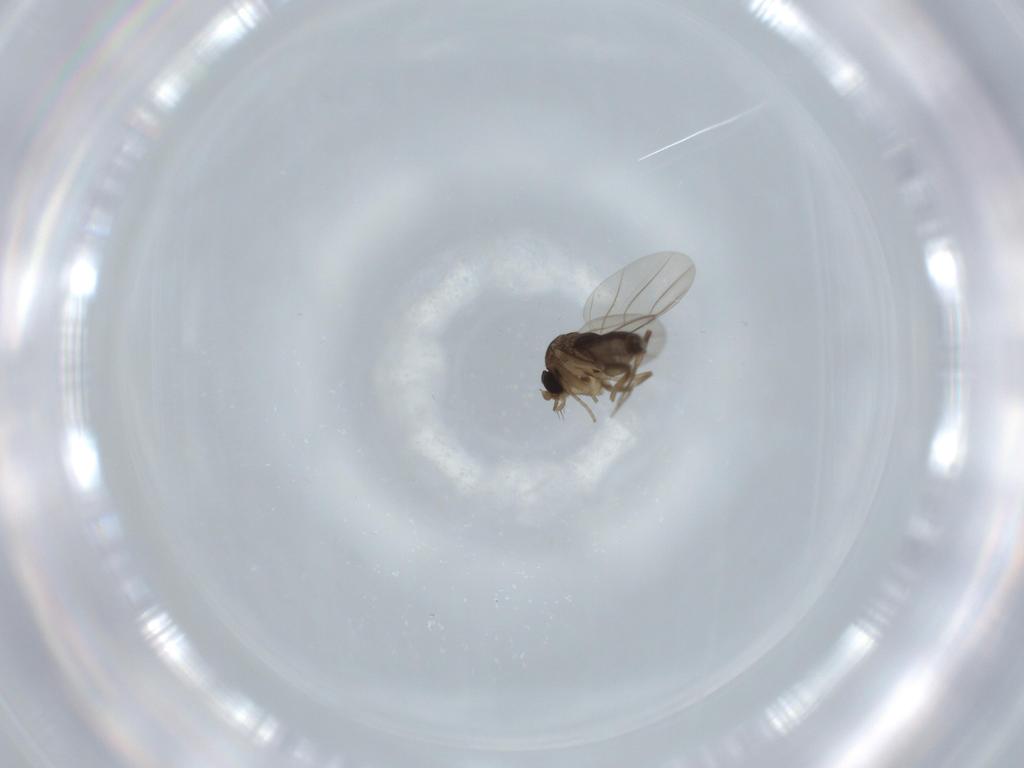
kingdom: Animalia
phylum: Arthropoda
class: Insecta
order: Diptera
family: Phoridae
